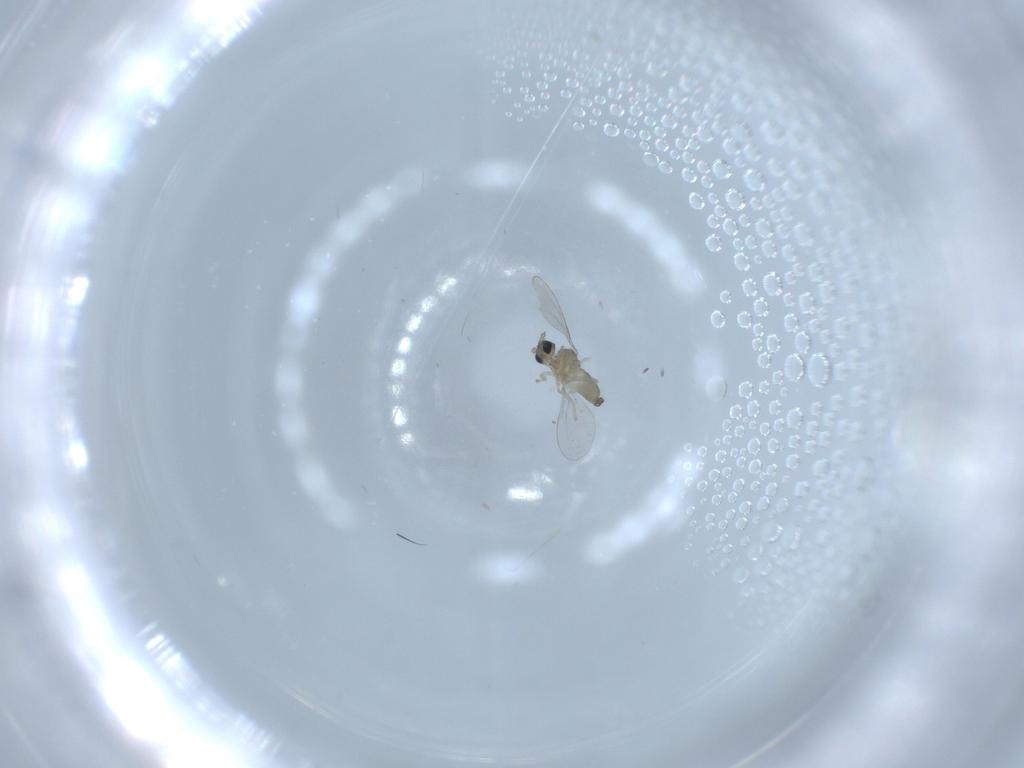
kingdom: Animalia
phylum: Arthropoda
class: Insecta
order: Diptera
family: Cecidomyiidae
